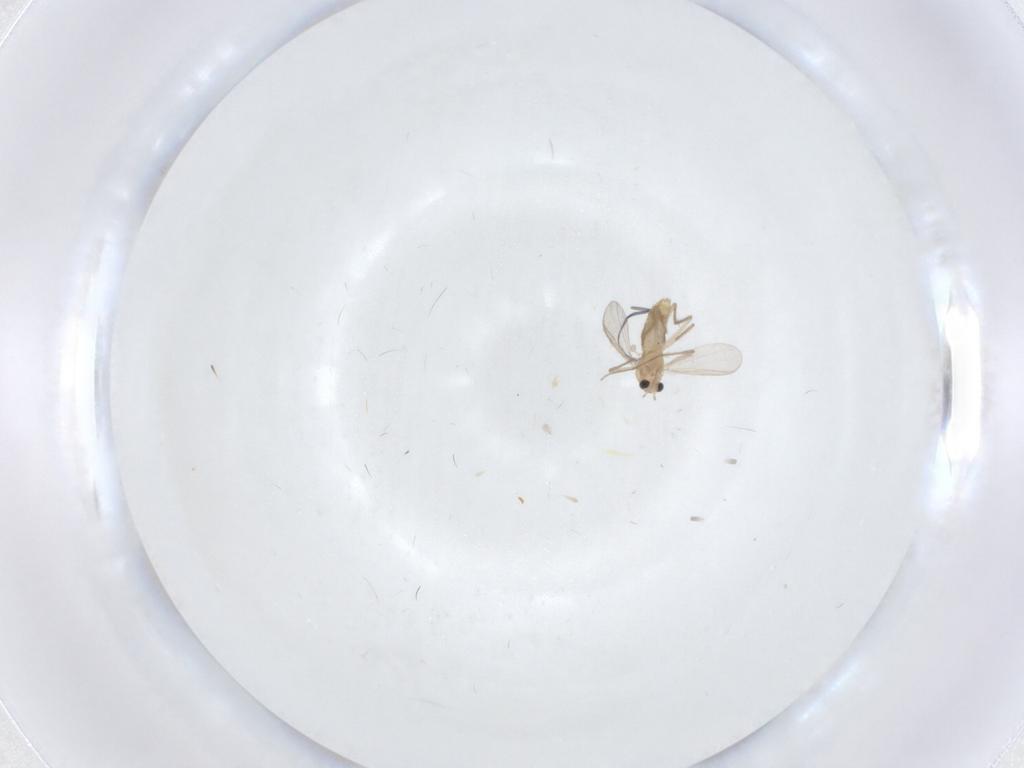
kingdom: Animalia
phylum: Arthropoda
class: Insecta
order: Diptera
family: Chironomidae
